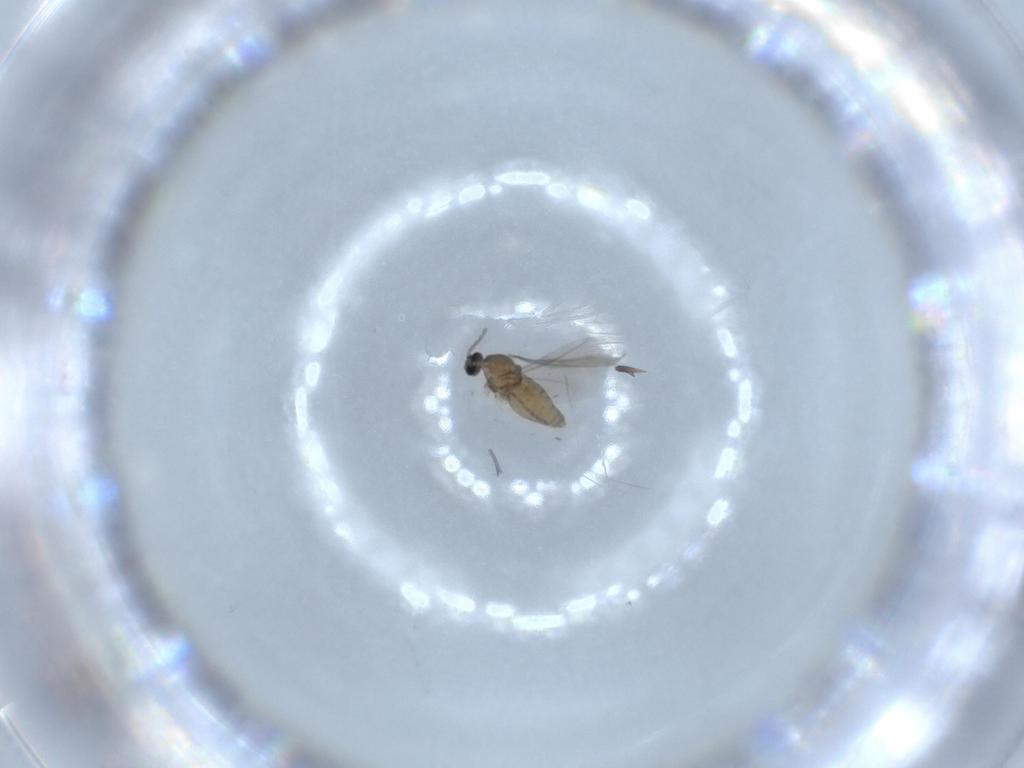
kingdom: Animalia
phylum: Arthropoda
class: Insecta
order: Diptera
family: Cecidomyiidae
